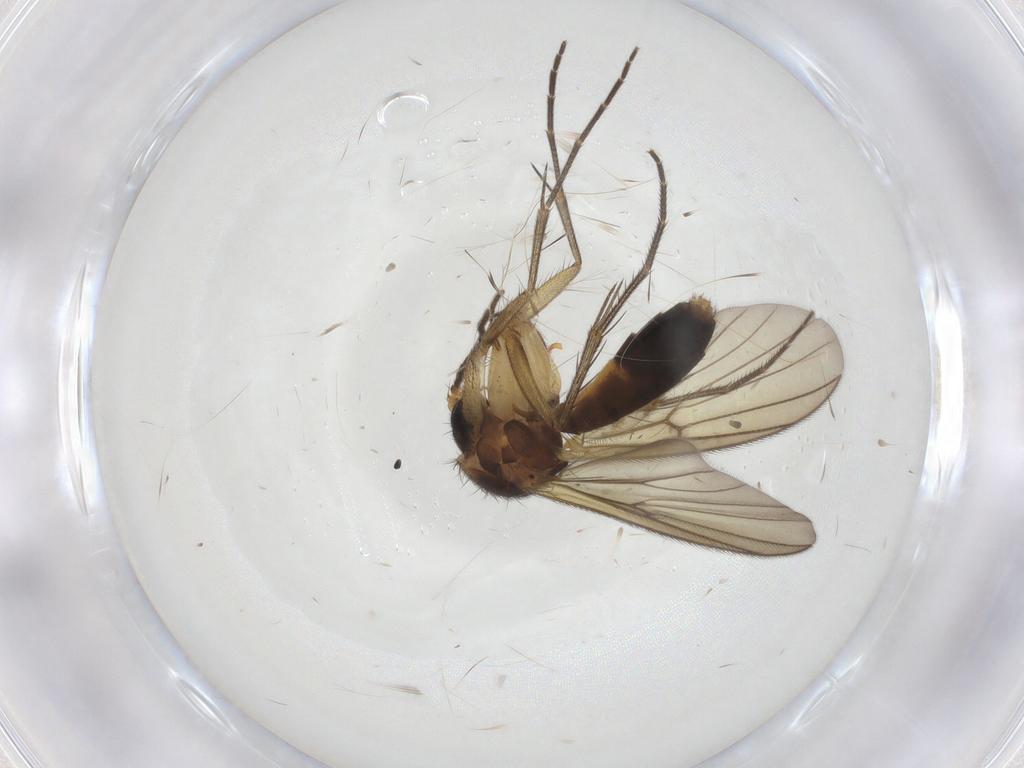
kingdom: Animalia
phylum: Arthropoda
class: Insecta
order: Diptera
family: Mycetophilidae
